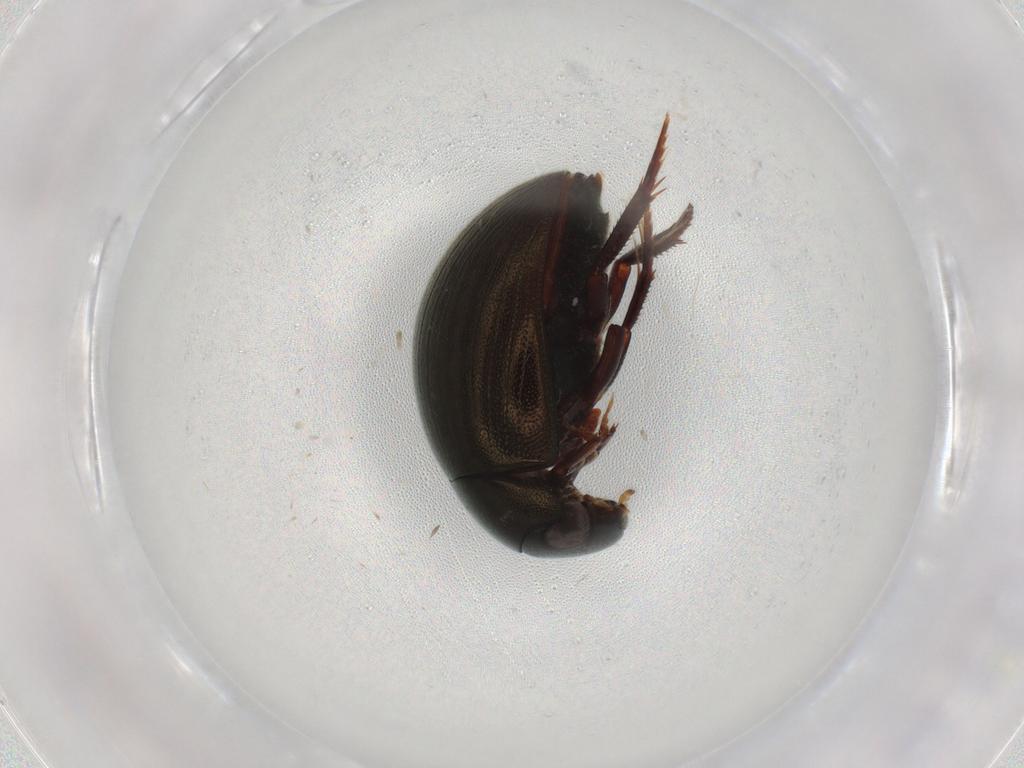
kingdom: Animalia
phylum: Arthropoda
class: Insecta
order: Coleoptera
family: Staphylinidae
